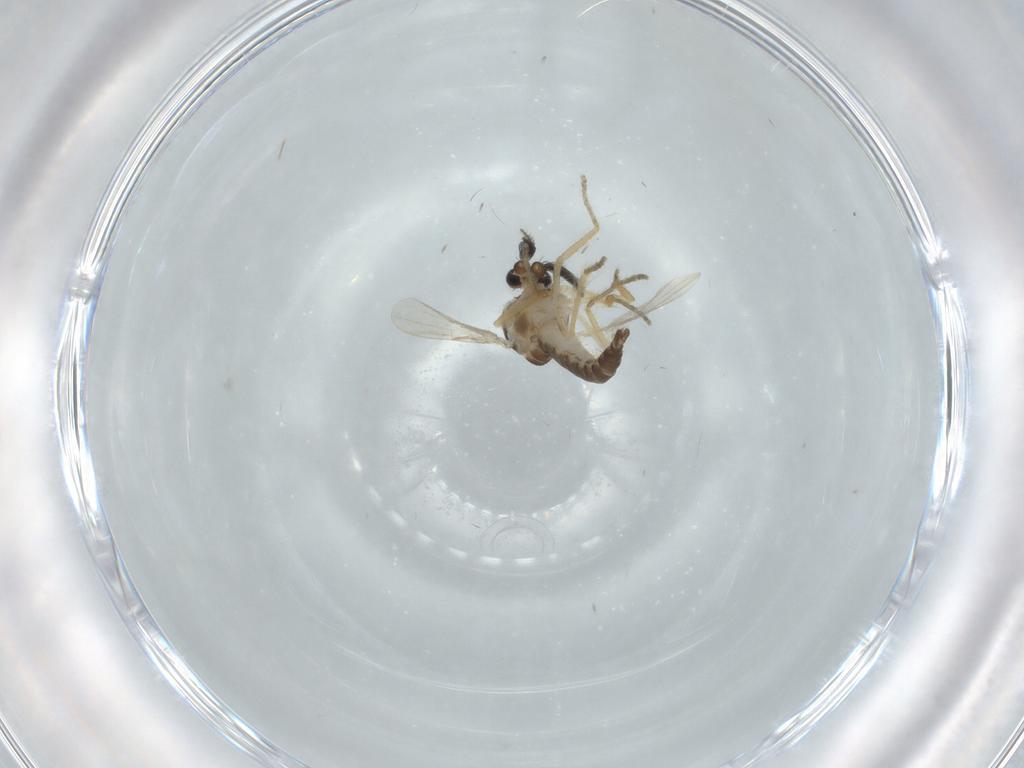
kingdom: Animalia
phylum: Arthropoda
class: Insecta
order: Diptera
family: Ceratopogonidae
